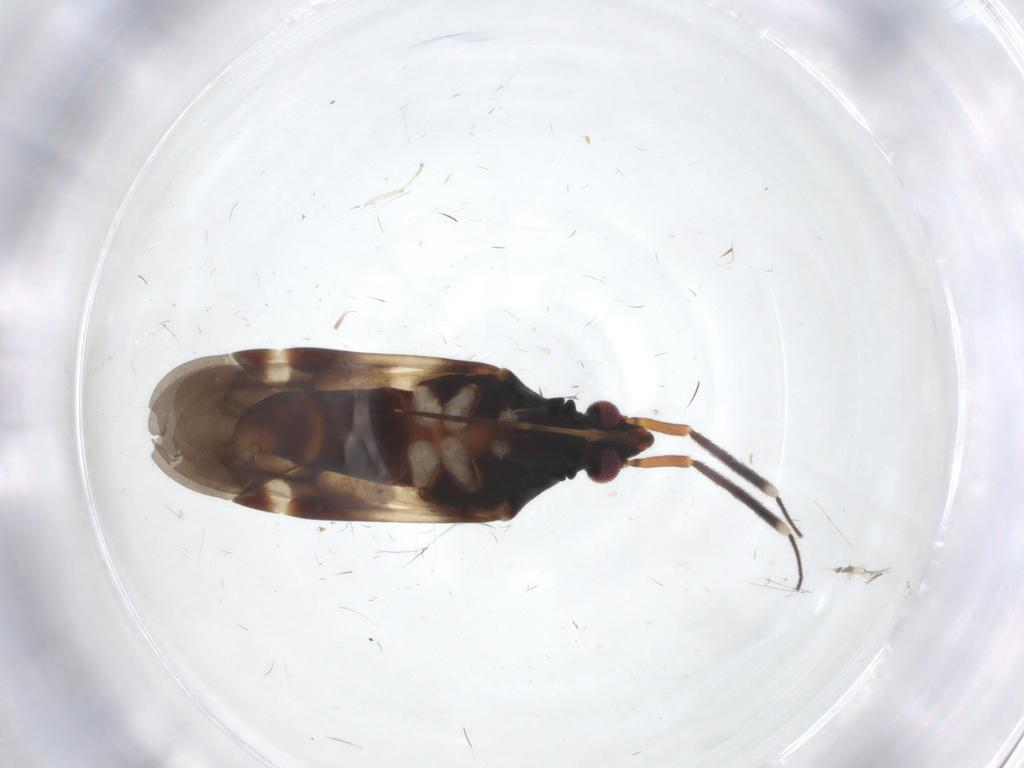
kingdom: Animalia
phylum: Arthropoda
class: Insecta
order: Hemiptera
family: Miridae
